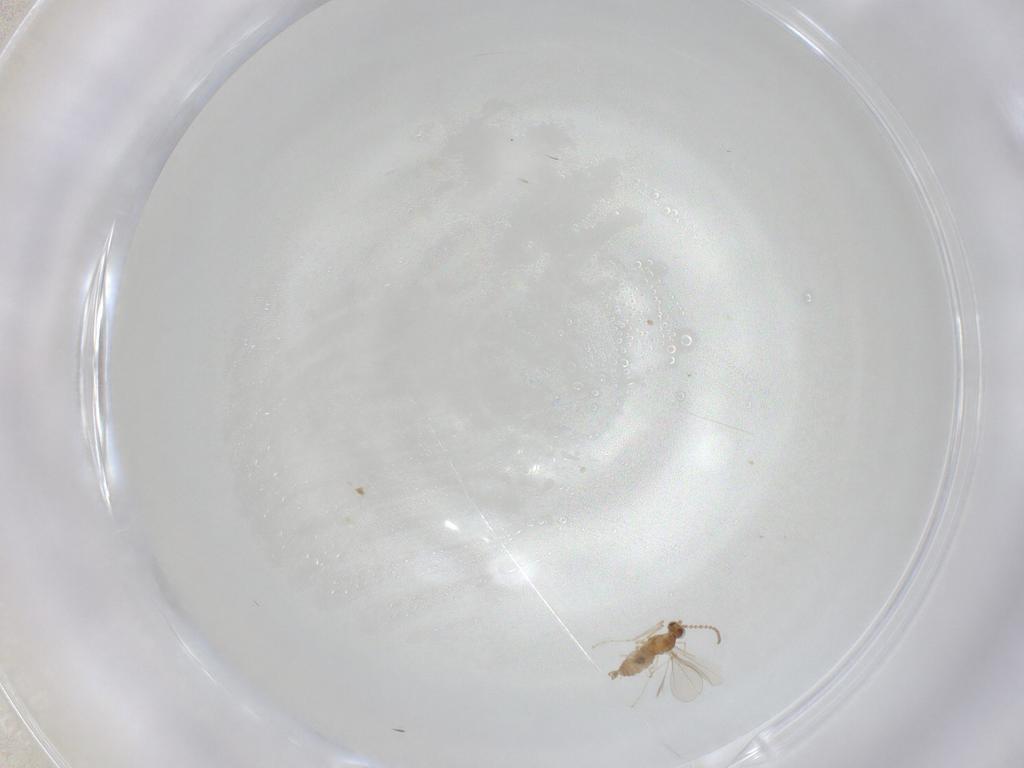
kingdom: Animalia
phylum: Arthropoda
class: Insecta
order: Diptera
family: Cecidomyiidae
